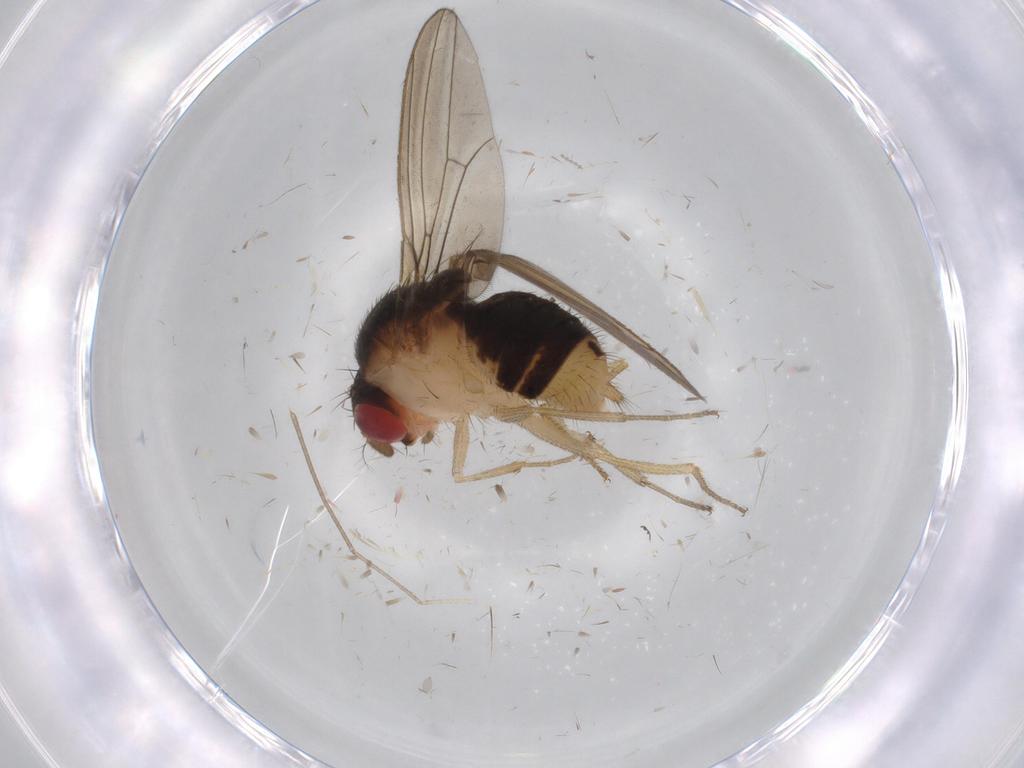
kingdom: Animalia
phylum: Arthropoda
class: Insecta
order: Diptera
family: Drosophilidae
